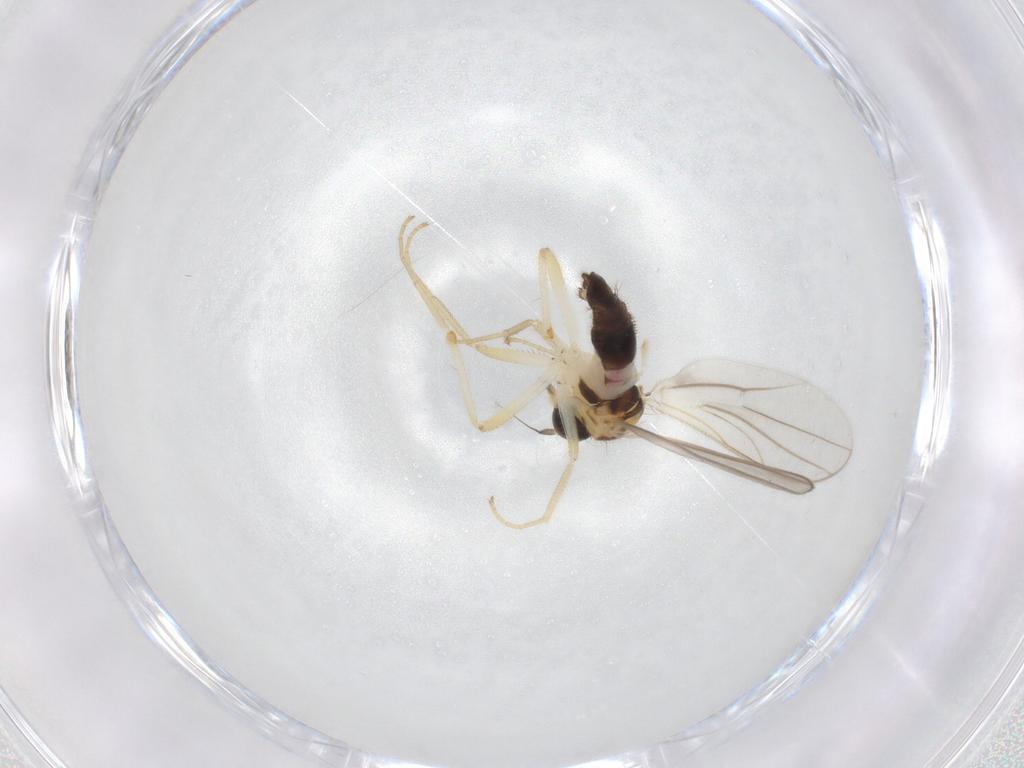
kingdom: Animalia
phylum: Arthropoda
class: Insecta
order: Diptera
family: Hybotidae
